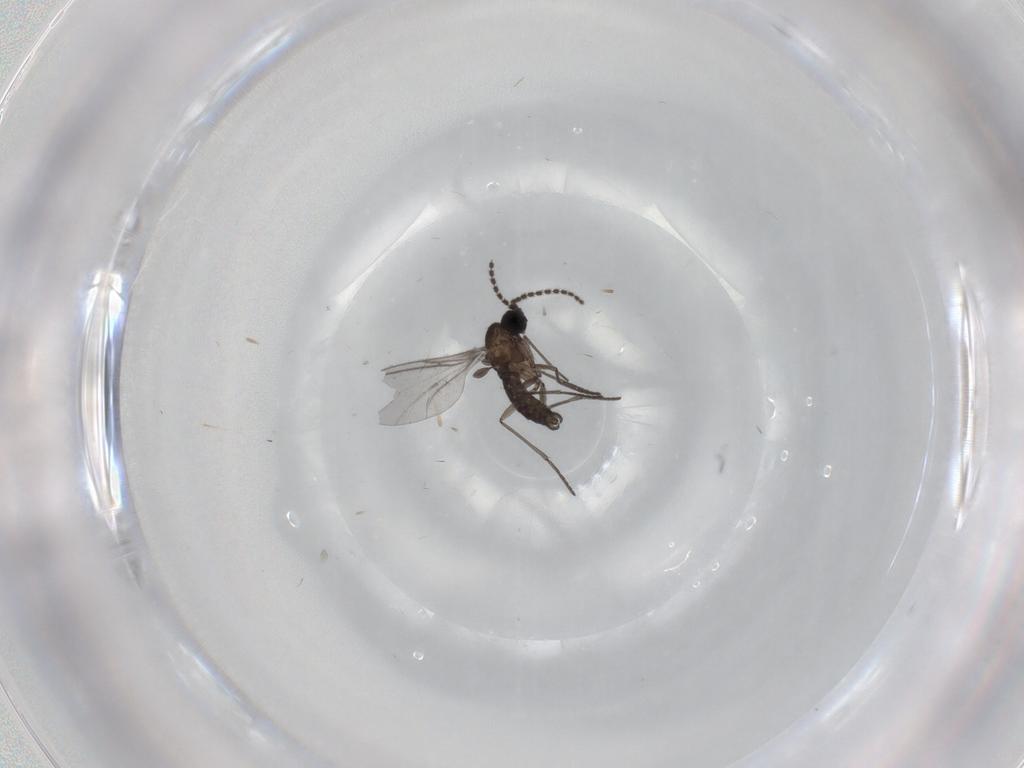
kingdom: Animalia
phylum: Arthropoda
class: Insecta
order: Diptera
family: Sciaridae
